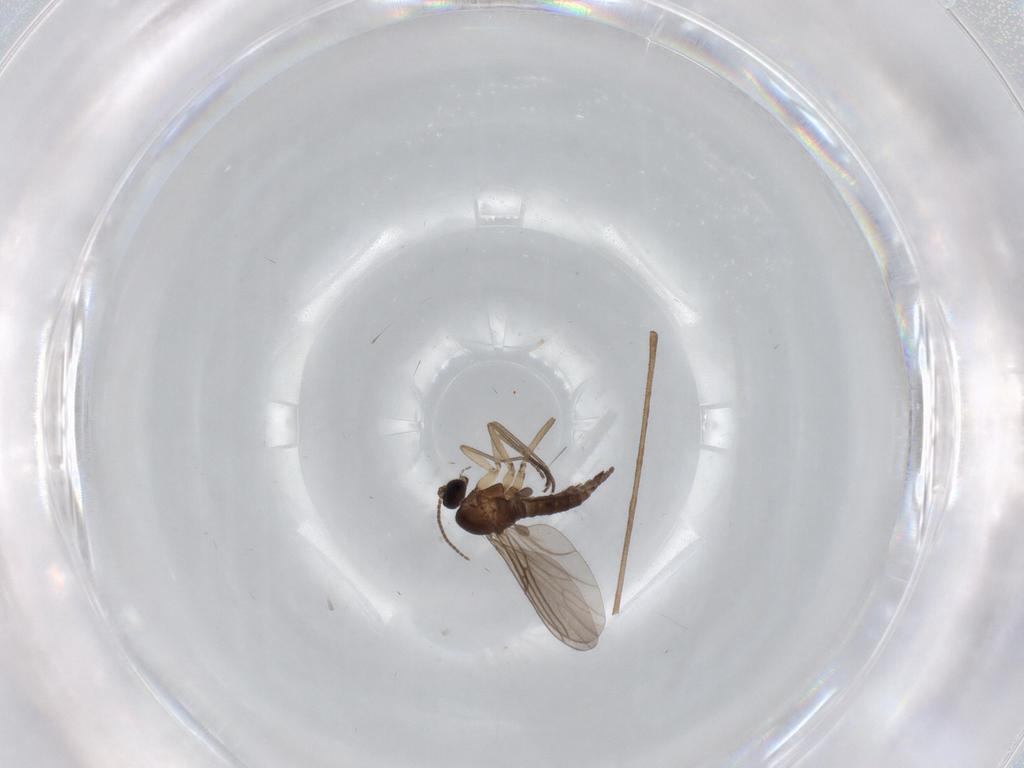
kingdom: Animalia
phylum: Arthropoda
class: Insecta
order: Diptera
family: Sciaridae
